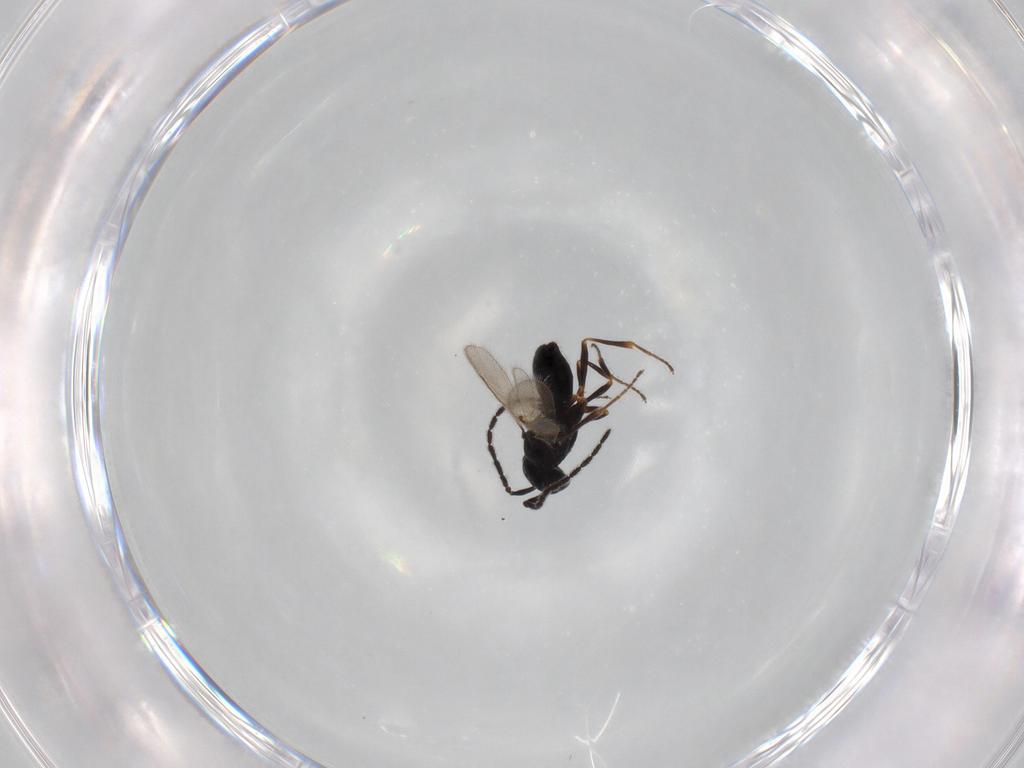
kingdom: Animalia
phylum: Arthropoda
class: Insecta
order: Hymenoptera
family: Scelionidae
